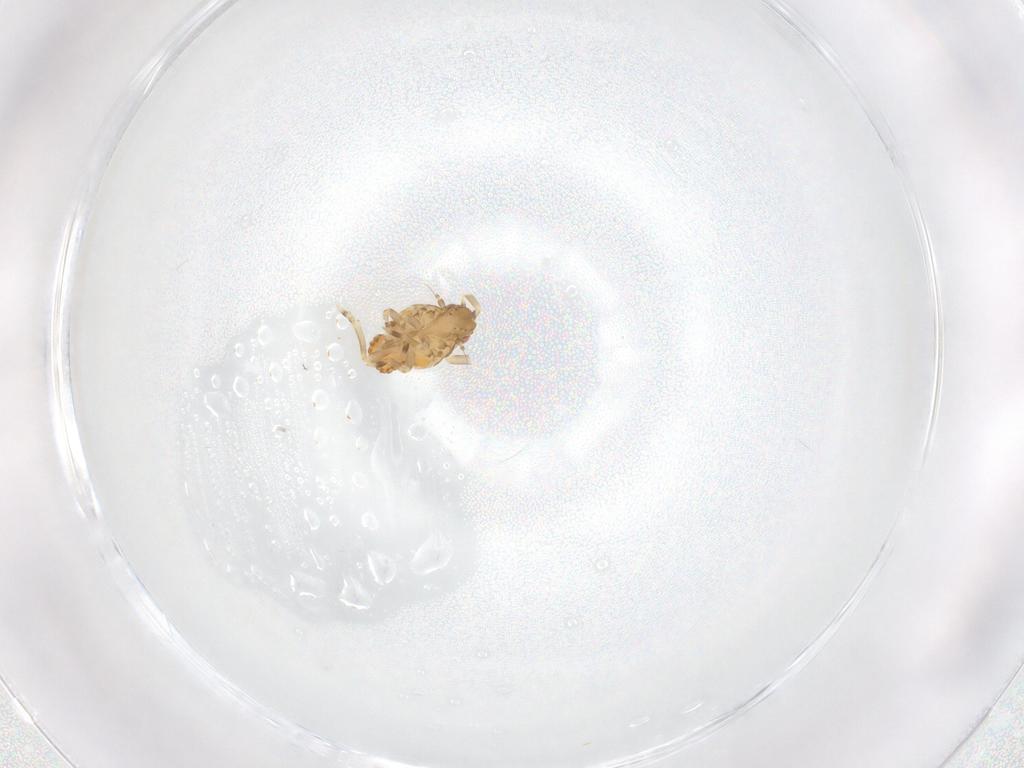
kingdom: Animalia
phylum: Arthropoda
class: Insecta
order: Hemiptera
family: Flatidae
